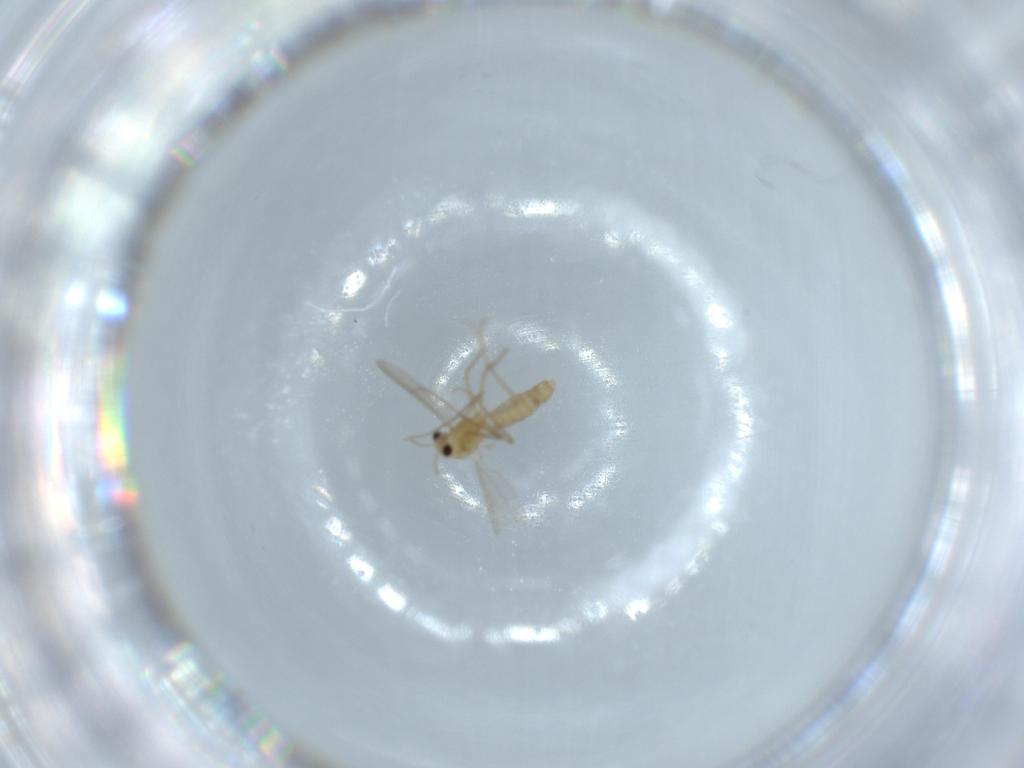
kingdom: Animalia
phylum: Arthropoda
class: Insecta
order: Diptera
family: Chironomidae
